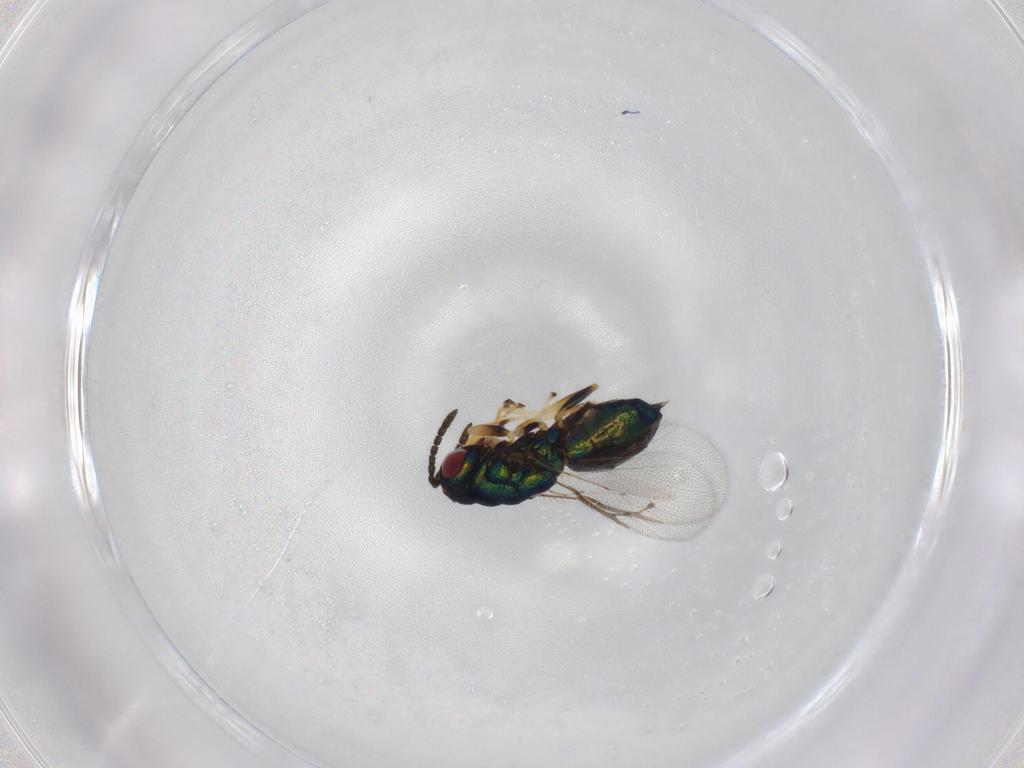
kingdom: Animalia
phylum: Arthropoda
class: Insecta
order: Hymenoptera
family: Pteromalidae
